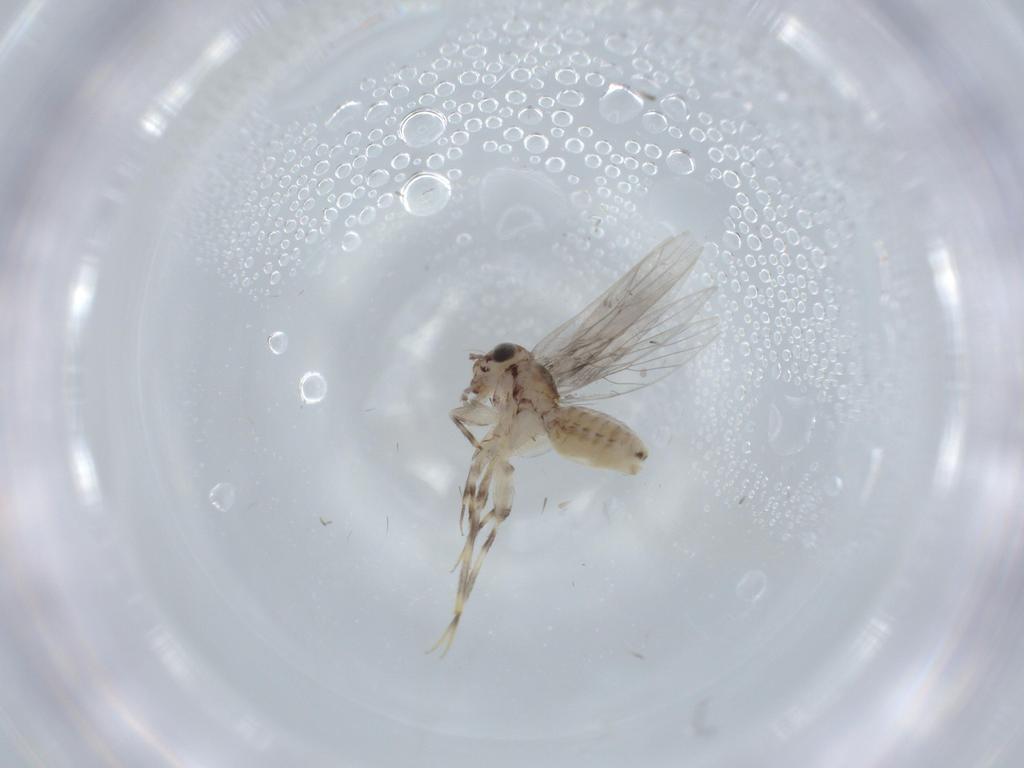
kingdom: Animalia
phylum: Arthropoda
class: Insecta
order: Psocodea
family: Lepidopsocidae
